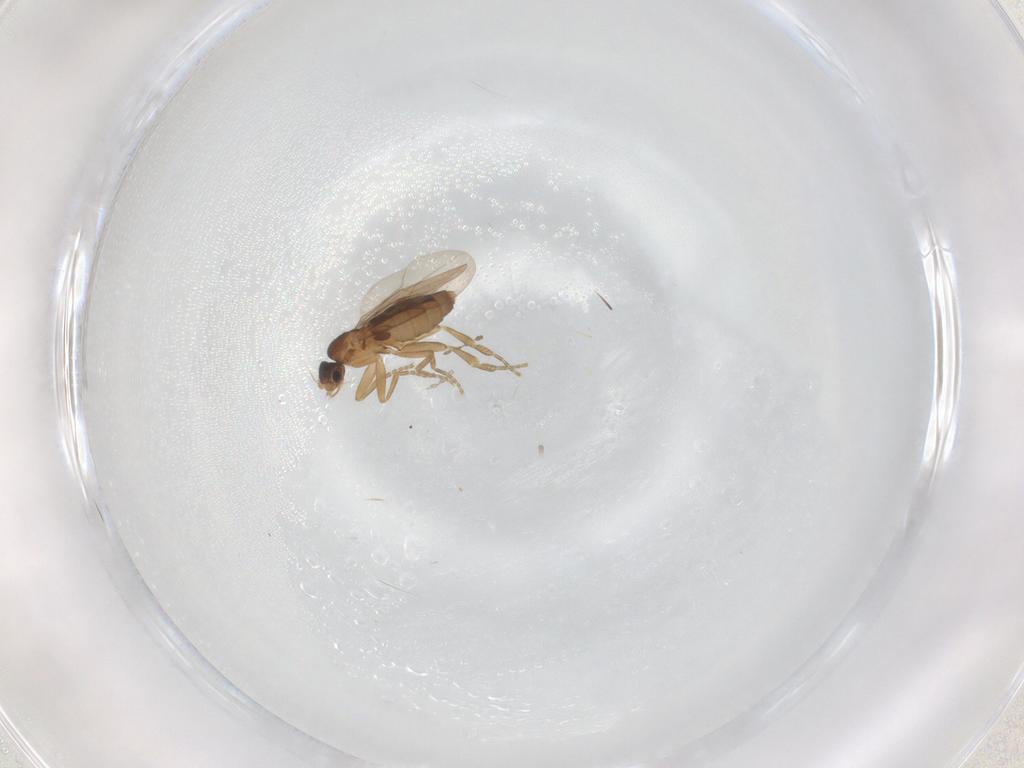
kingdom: Animalia
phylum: Arthropoda
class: Insecta
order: Diptera
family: Phoridae
